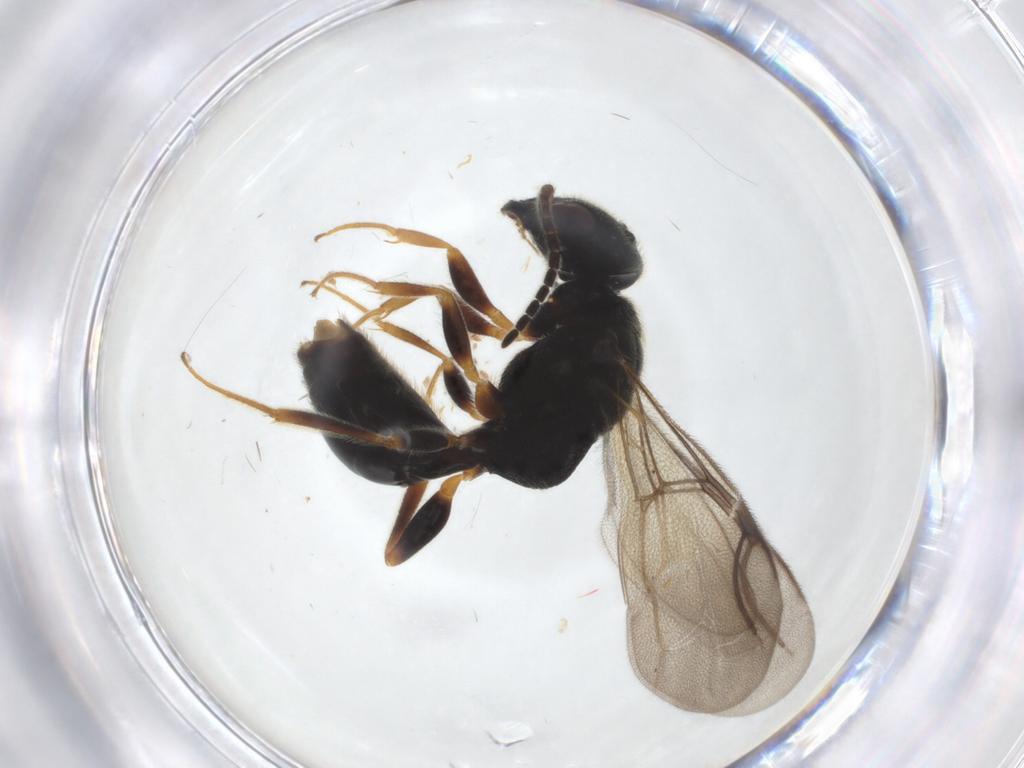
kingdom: Animalia
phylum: Arthropoda
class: Insecta
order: Hymenoptera
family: Bethylidae
